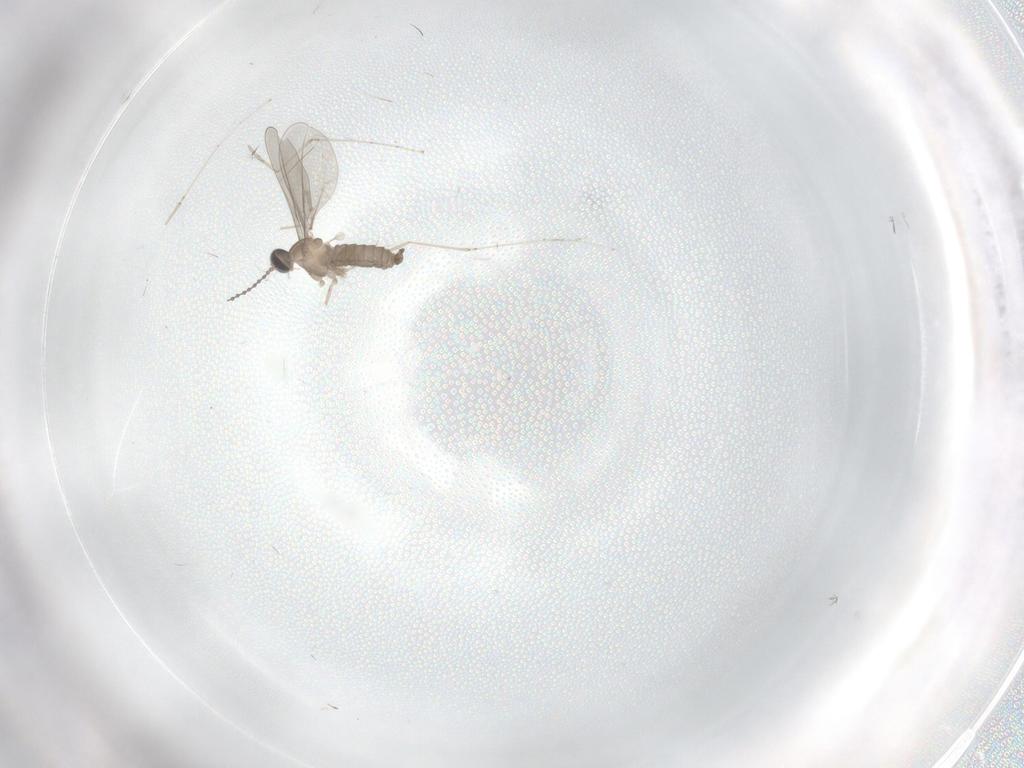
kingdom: Animalia
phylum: Arthropoda
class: Insecta
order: Diptera
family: Cecidomyiidae
